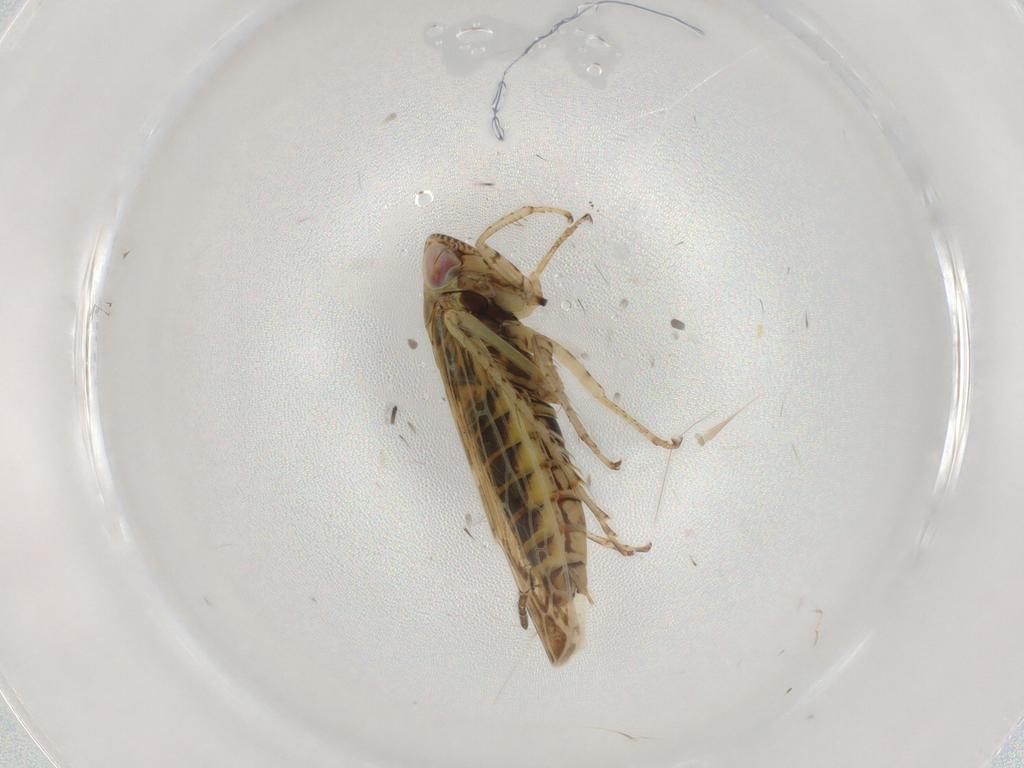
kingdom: Animalia
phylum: Arthropoda
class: Insecta
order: Hemiptera
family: Cicadellidae
